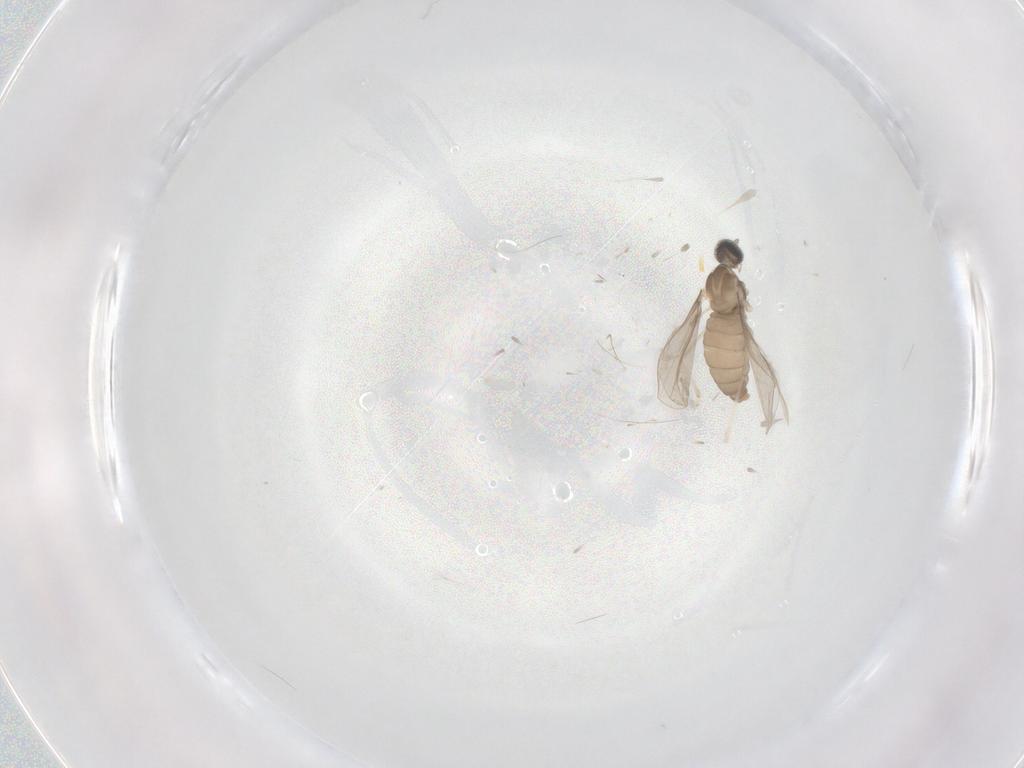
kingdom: Animalia
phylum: Arthropoda
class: Insecta
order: Diptera
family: Cecidomyiidae
